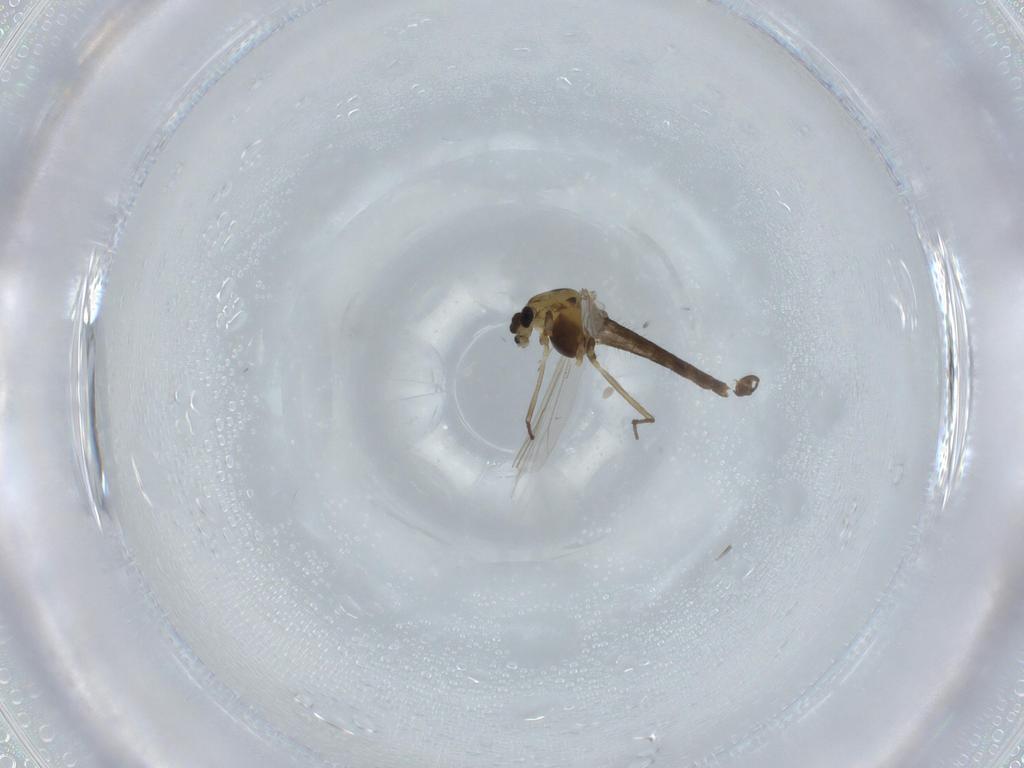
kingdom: Animalia
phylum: Arthropoda
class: Insecta
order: Diptera
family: Chironomidae
